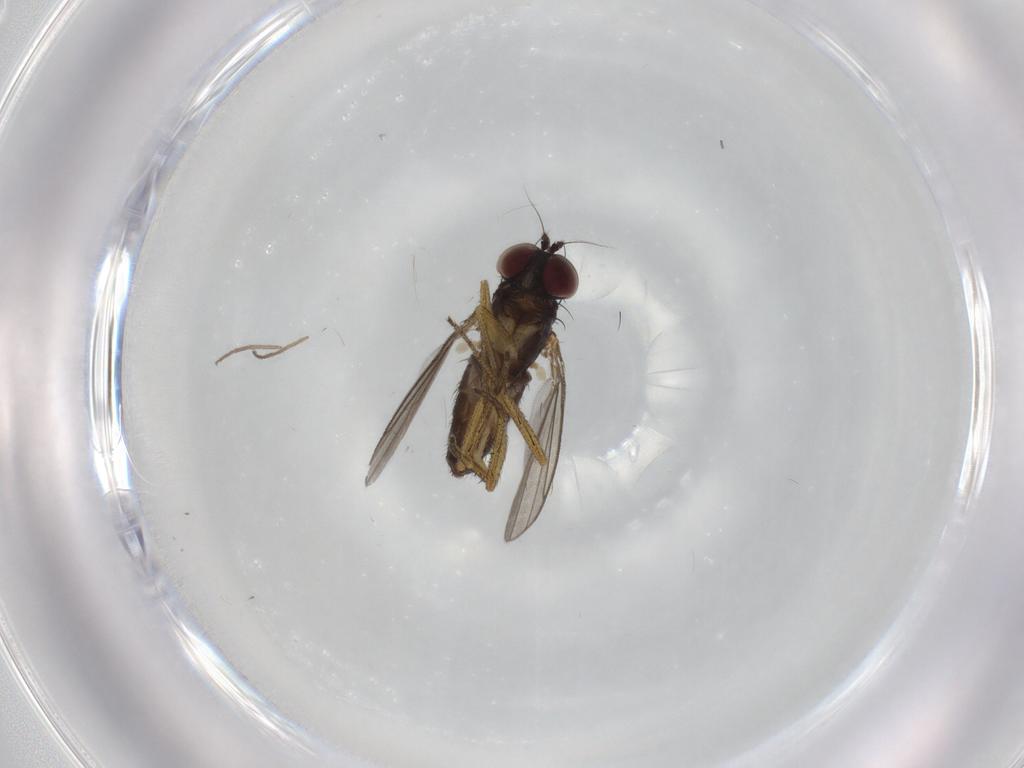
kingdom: Animalia
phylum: Arthropoda
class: Insecta
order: Diptera
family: Dolichopodidae
